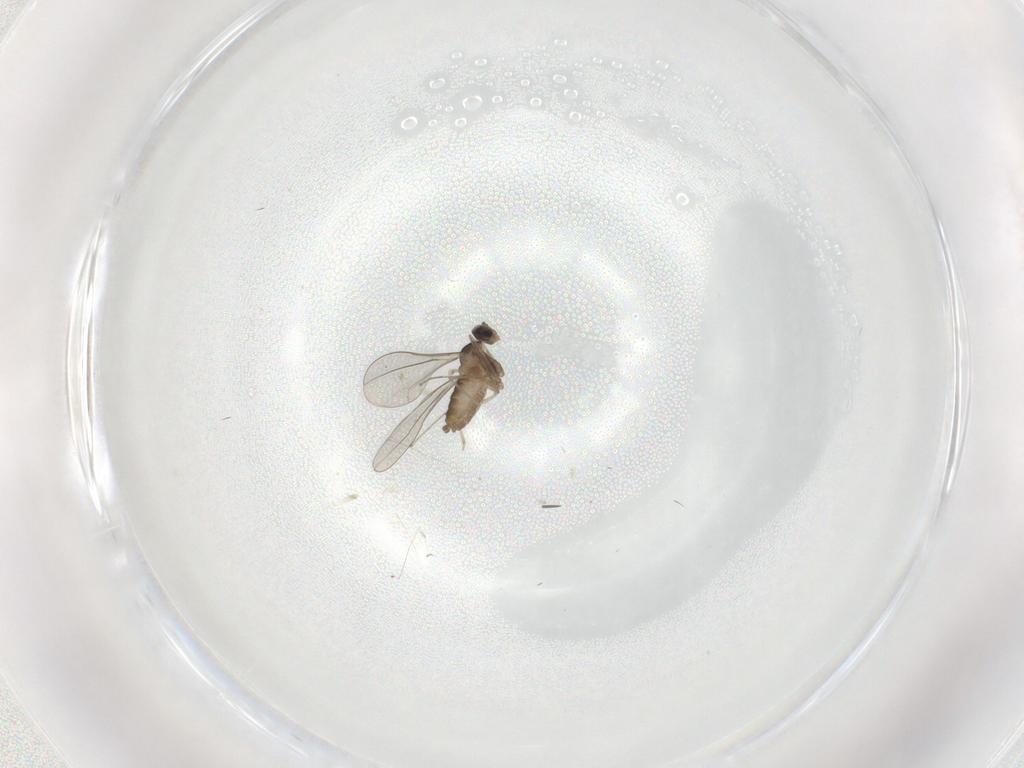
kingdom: Animalia
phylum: Arthropoda
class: Insecta
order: Diptera
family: Cecidomyiidae
